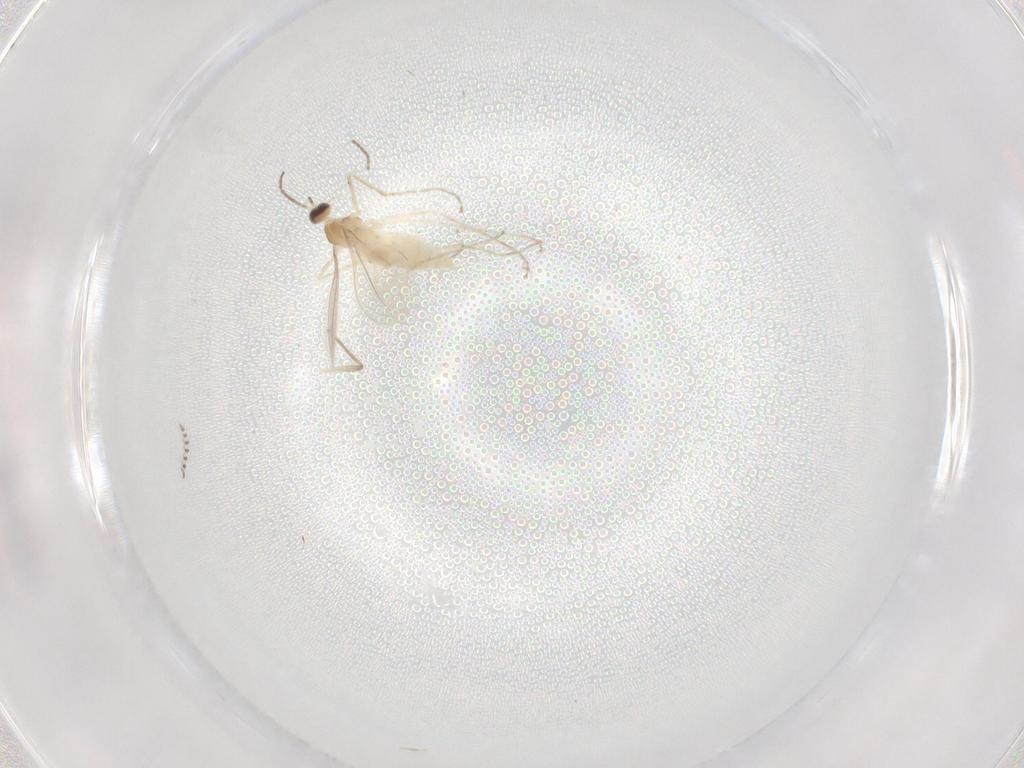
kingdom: Animalia
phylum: Arthropoda
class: Insecta
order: Diptera
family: Cecidomyiidae
